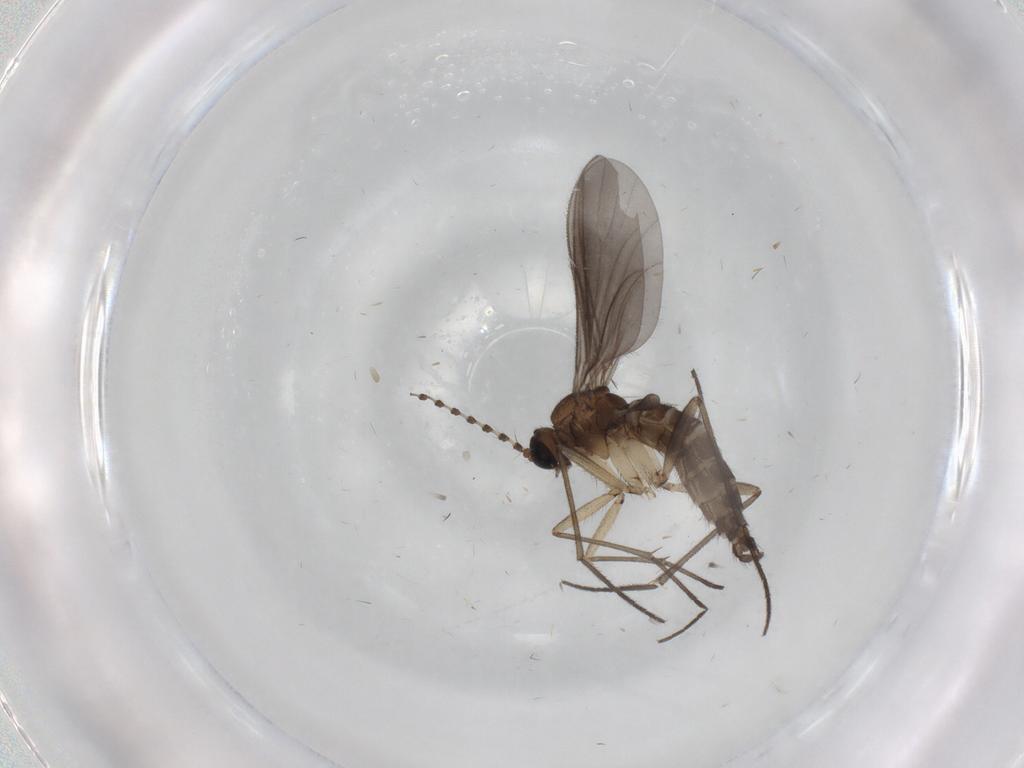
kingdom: Animalia
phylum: Arthropoda
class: Insecta
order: Diptera
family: Sciaridae
